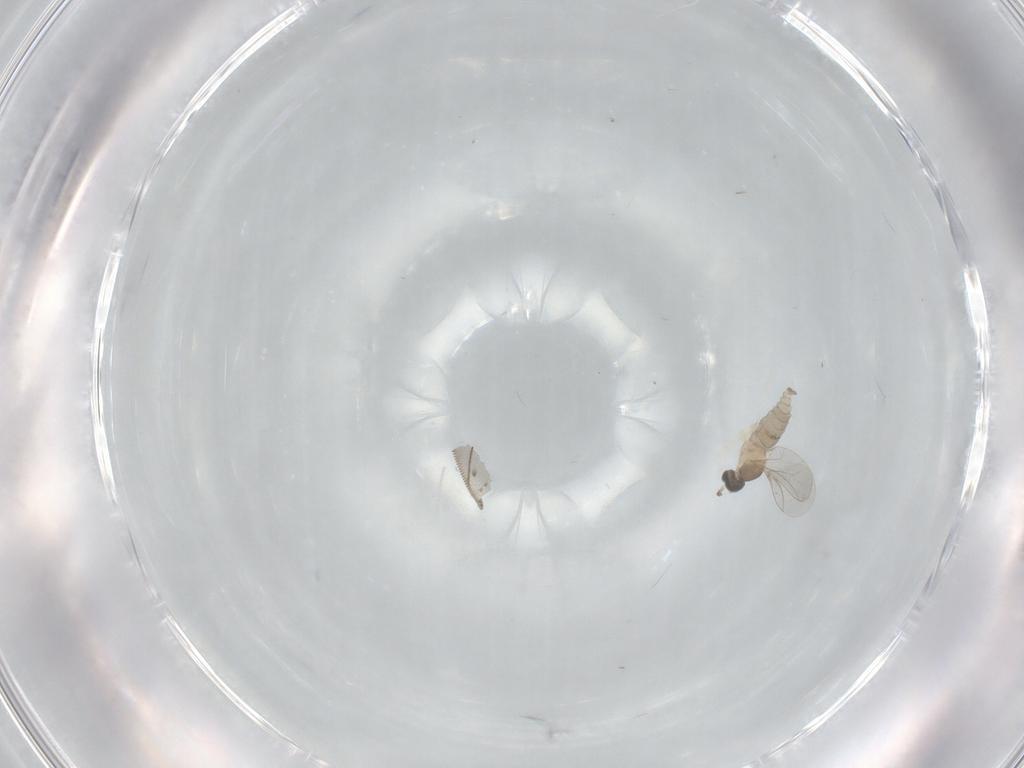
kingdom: Animalia
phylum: Arthropoda
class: Insecta
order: Diptera
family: Cecidomyiidae
